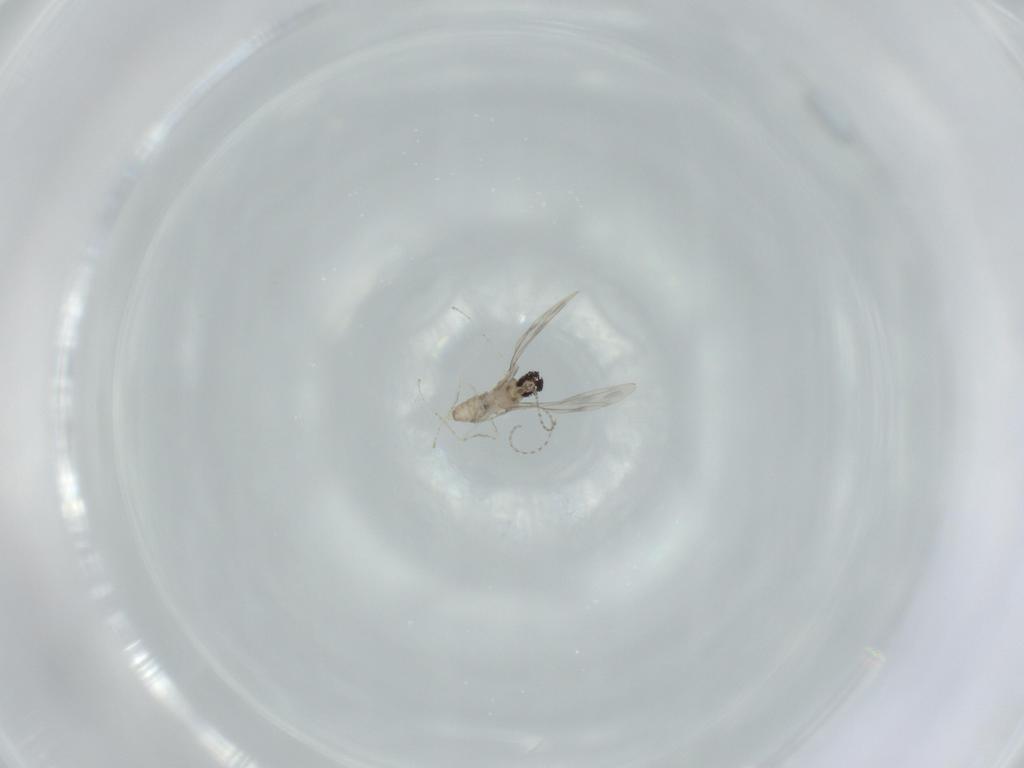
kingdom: Animalia
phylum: Arthropoda
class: Insecta
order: Diptera
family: Cecidomyiidae
